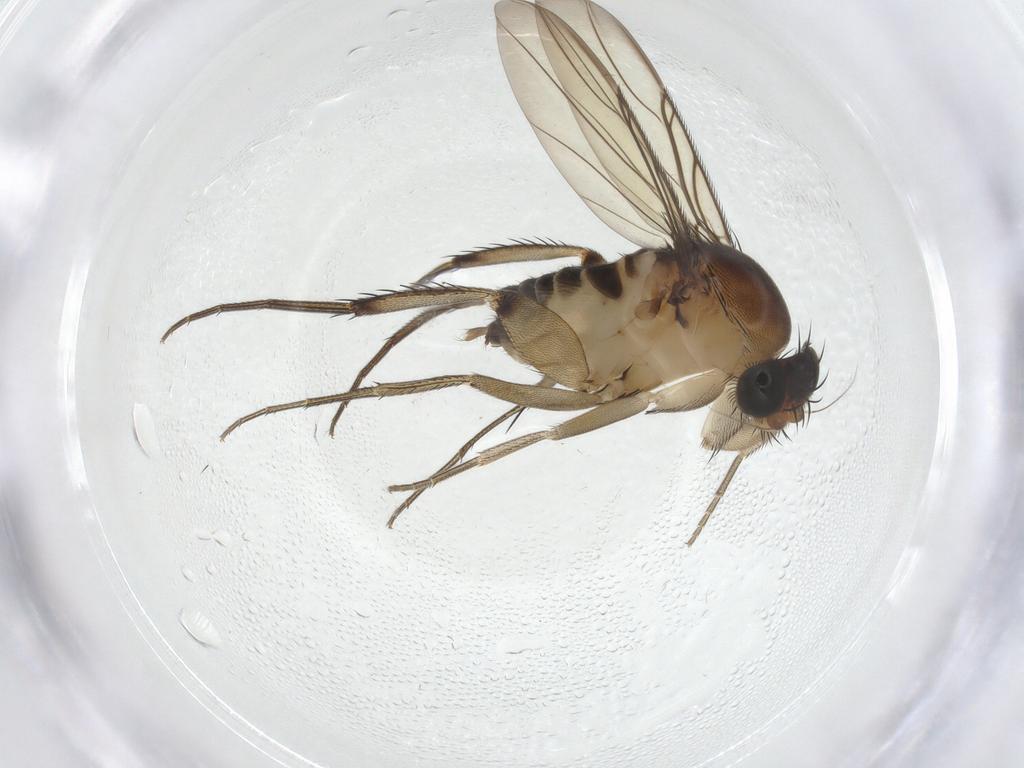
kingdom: Animalia
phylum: Arthropoda
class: Insecta
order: Diptera
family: Phoridae
